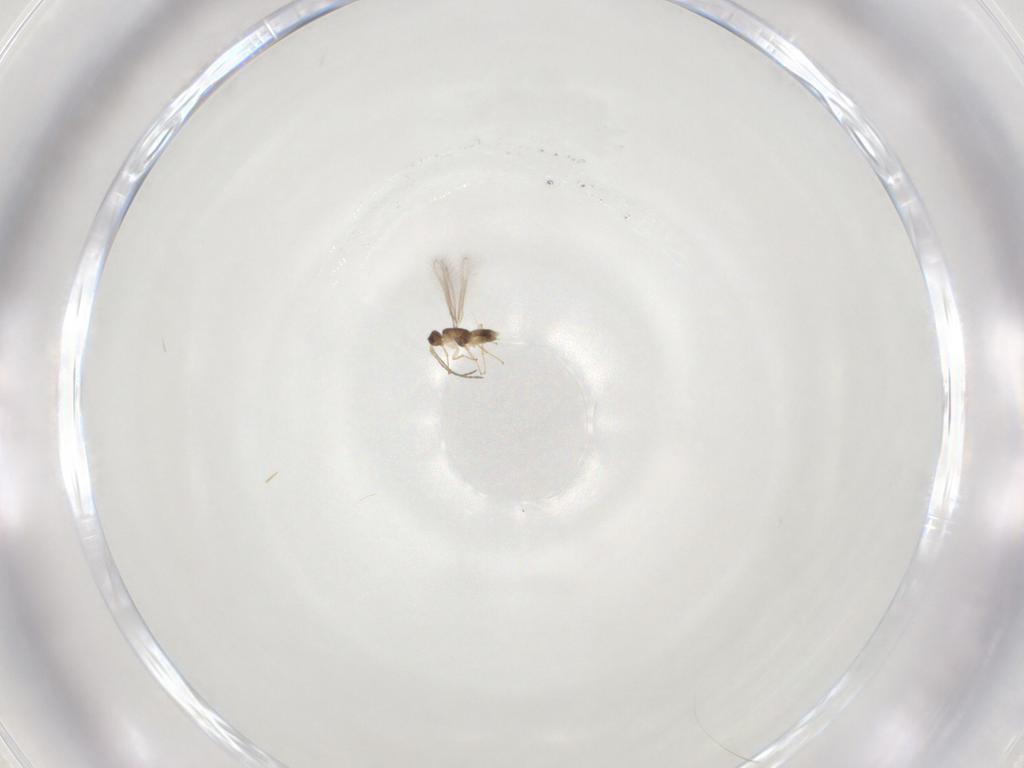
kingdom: Animalia
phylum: Arthropoda
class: Insecta
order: Hymenoptera
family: Mymaridae
